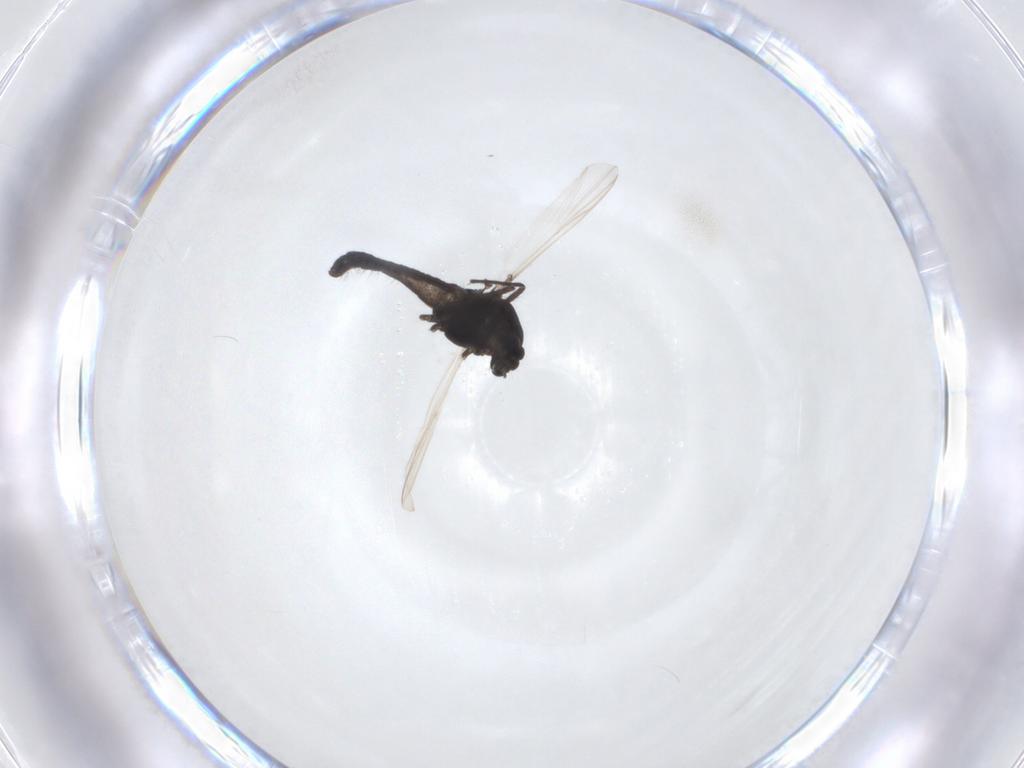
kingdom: Animalia
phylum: Arthropoda
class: Insecta
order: Diptera
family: Chironomidae
